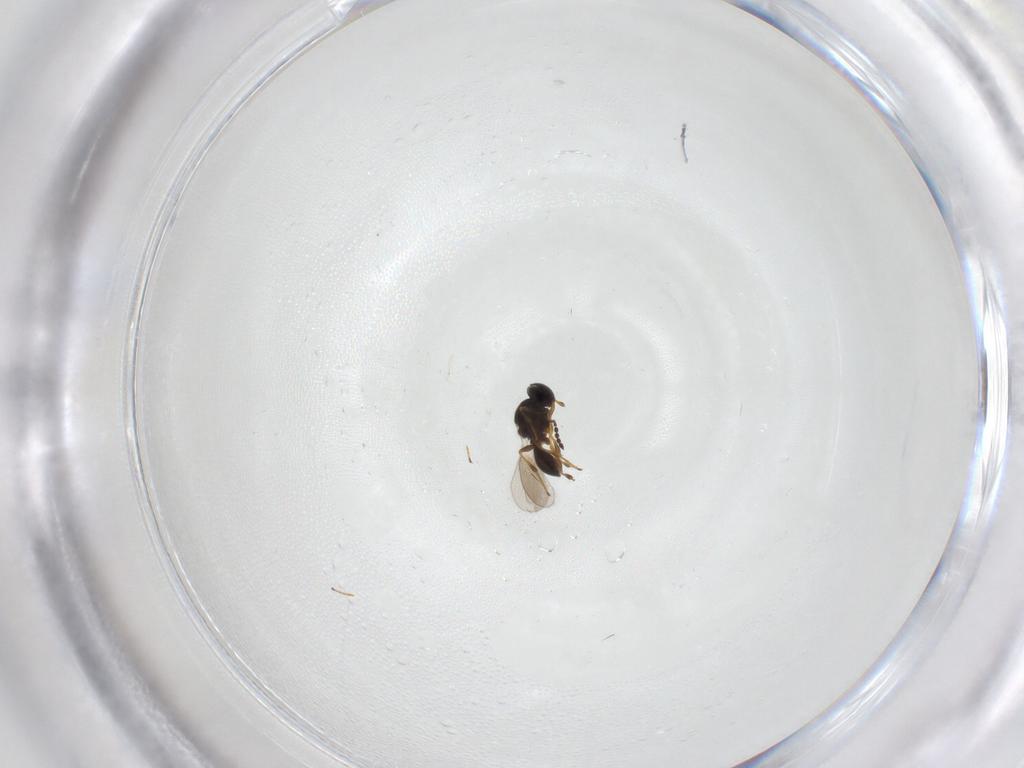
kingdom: Animalia
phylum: Arthropoda
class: Insecta
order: Hymenoptera
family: Platygastridae
